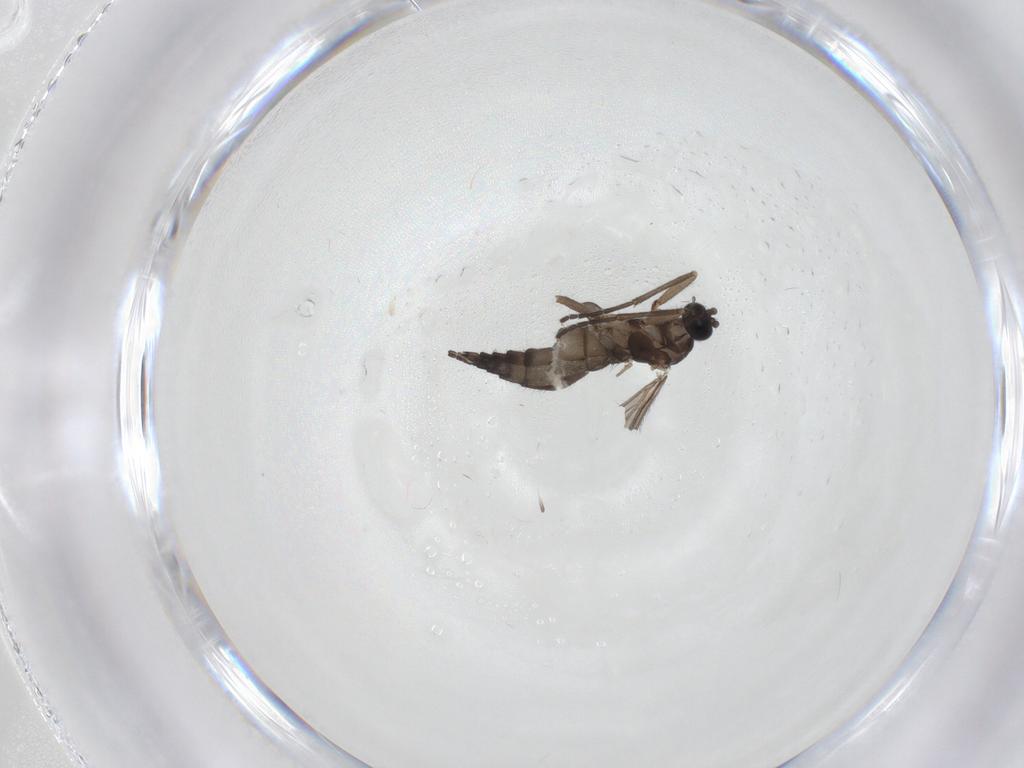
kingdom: Animalia
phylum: Arthropoda
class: Insecta
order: Diptera
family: Sciaridae
